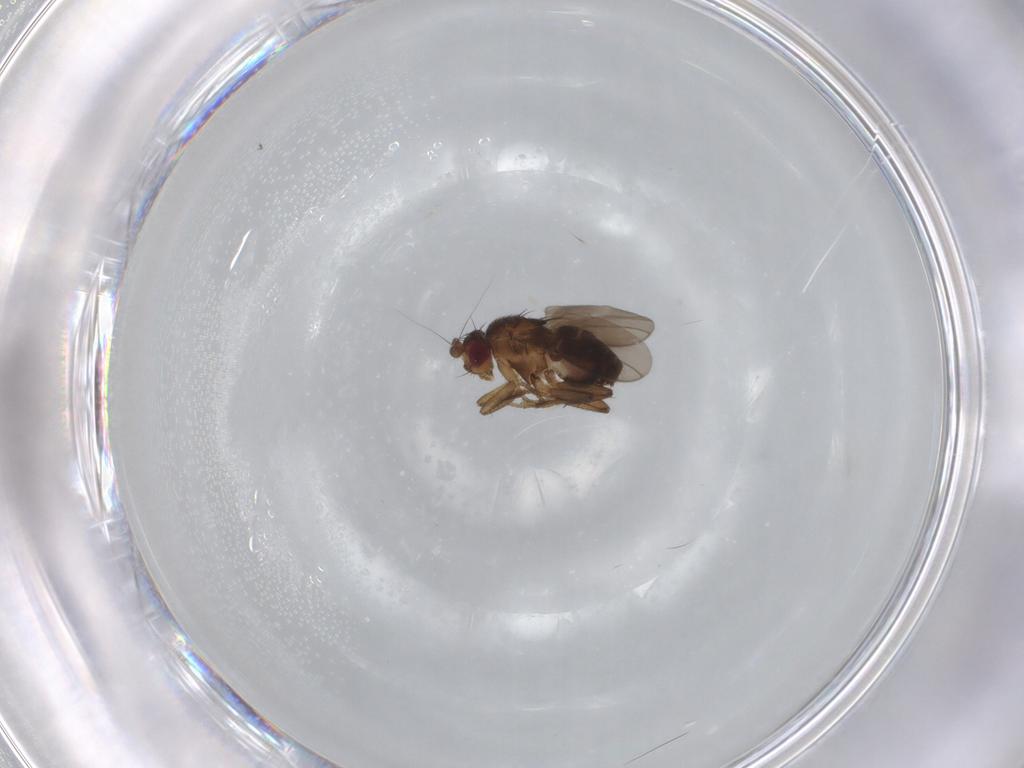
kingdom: Animalia
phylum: Arthropoda
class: Insecta
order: Diptera
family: Sphaeroceridae
